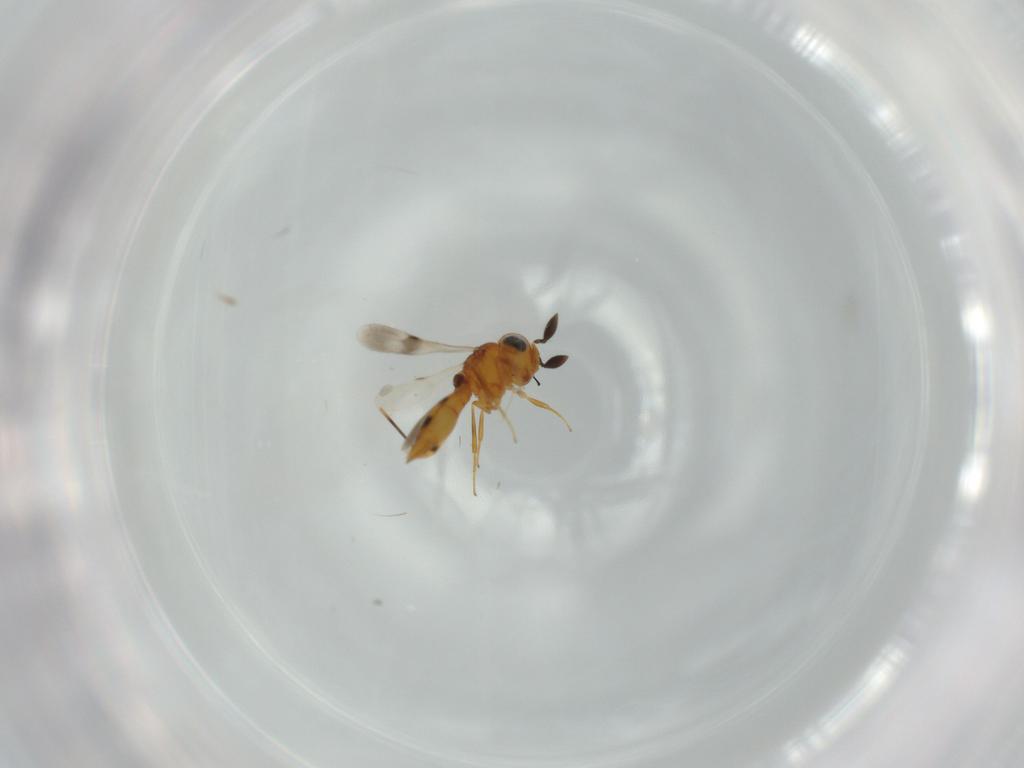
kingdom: Animalia
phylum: Arthropoda
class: Insecta
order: Hymenoptera
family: Scelionidae
